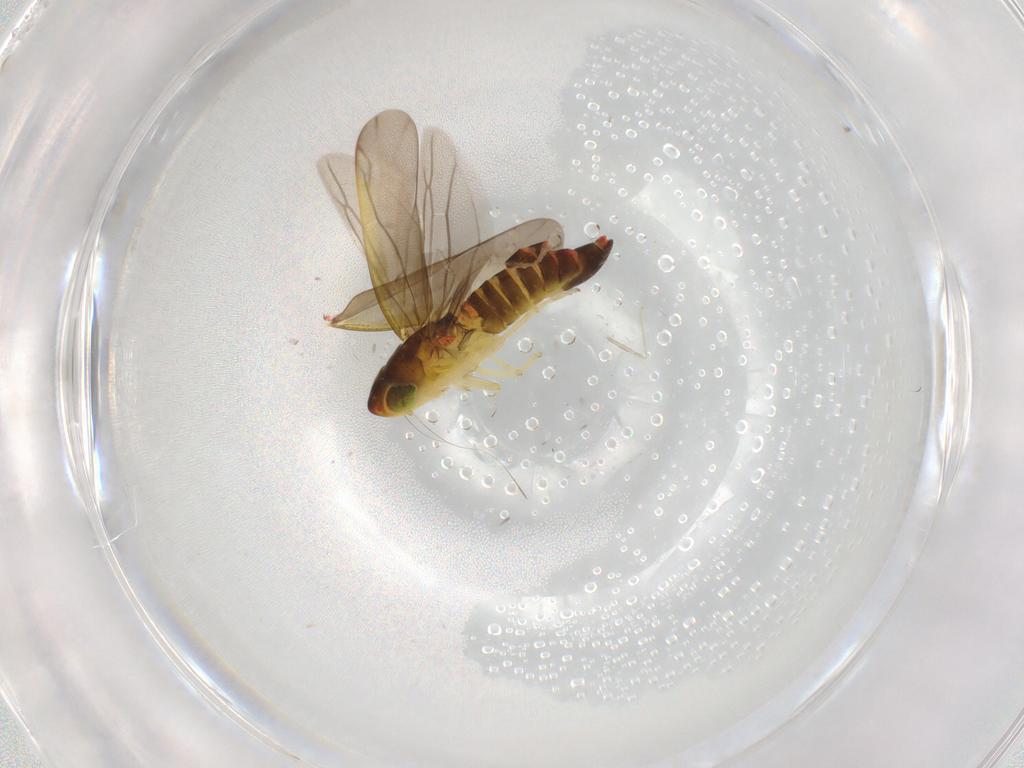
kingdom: Animalia
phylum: Arthropoda
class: Insecta
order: Hemiptera
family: Cicadellidae
